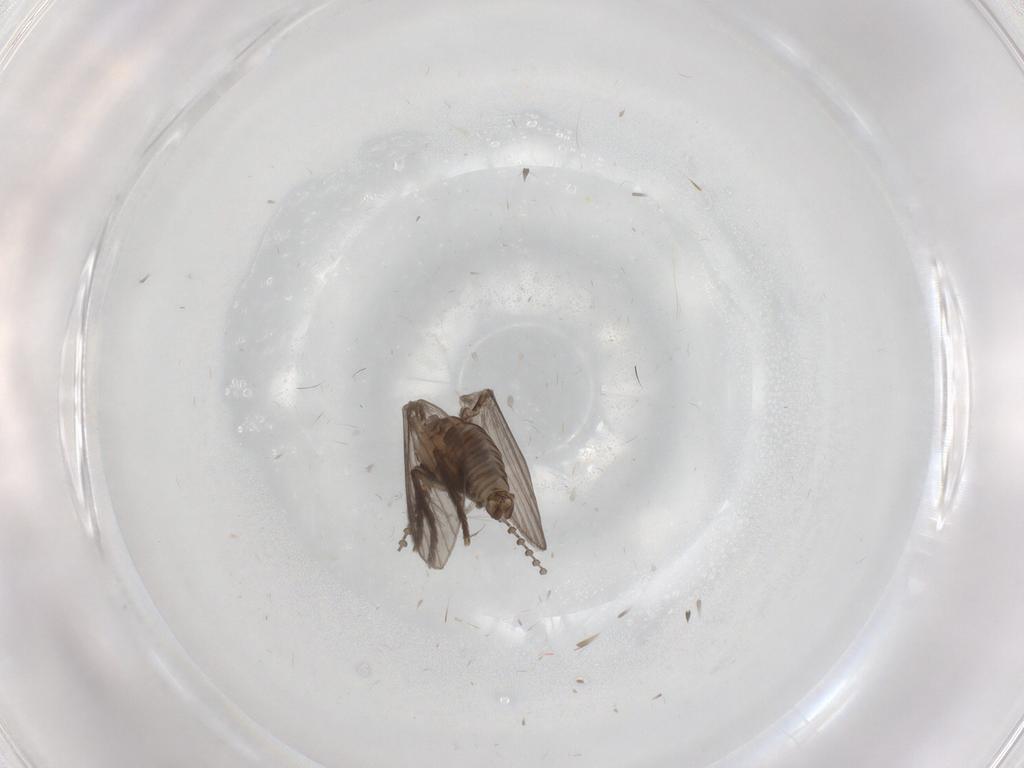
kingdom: Animalia
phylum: Arthropoda
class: Insecta
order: Diptera
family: Psychodidae
